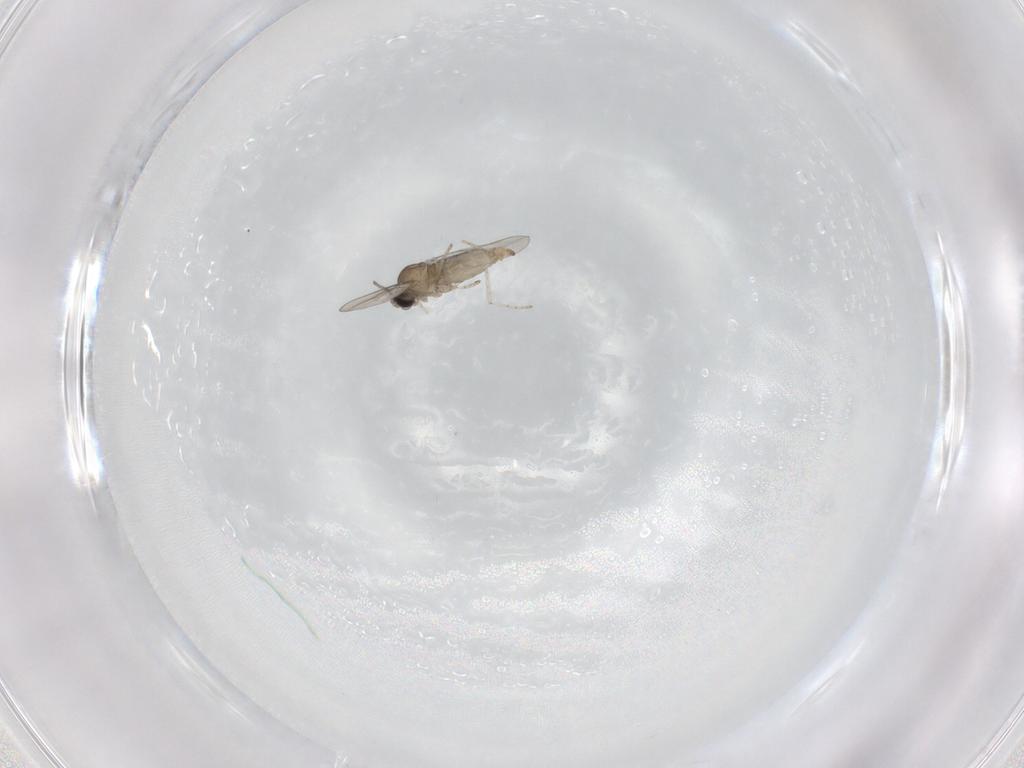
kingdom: Animalia
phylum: Arthropoda
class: Insecta
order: Diptera
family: Cecidomyiidae
